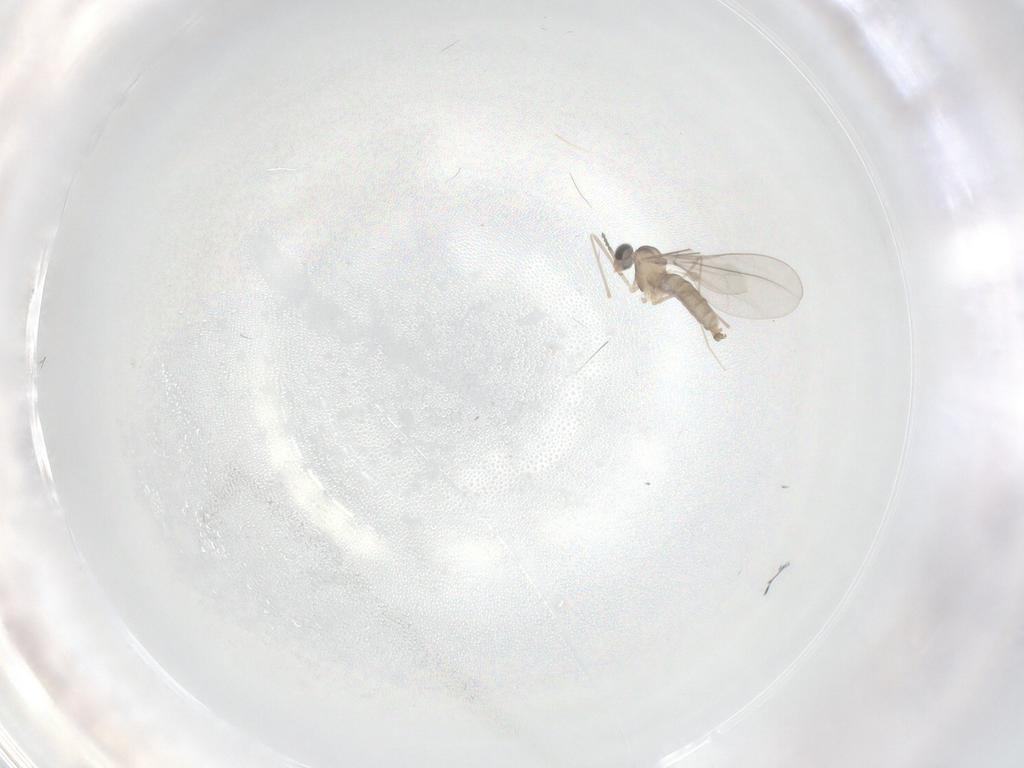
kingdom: Animalia
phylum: Arthropoda
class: Insecta
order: Diptera
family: Cecidomyiidae
